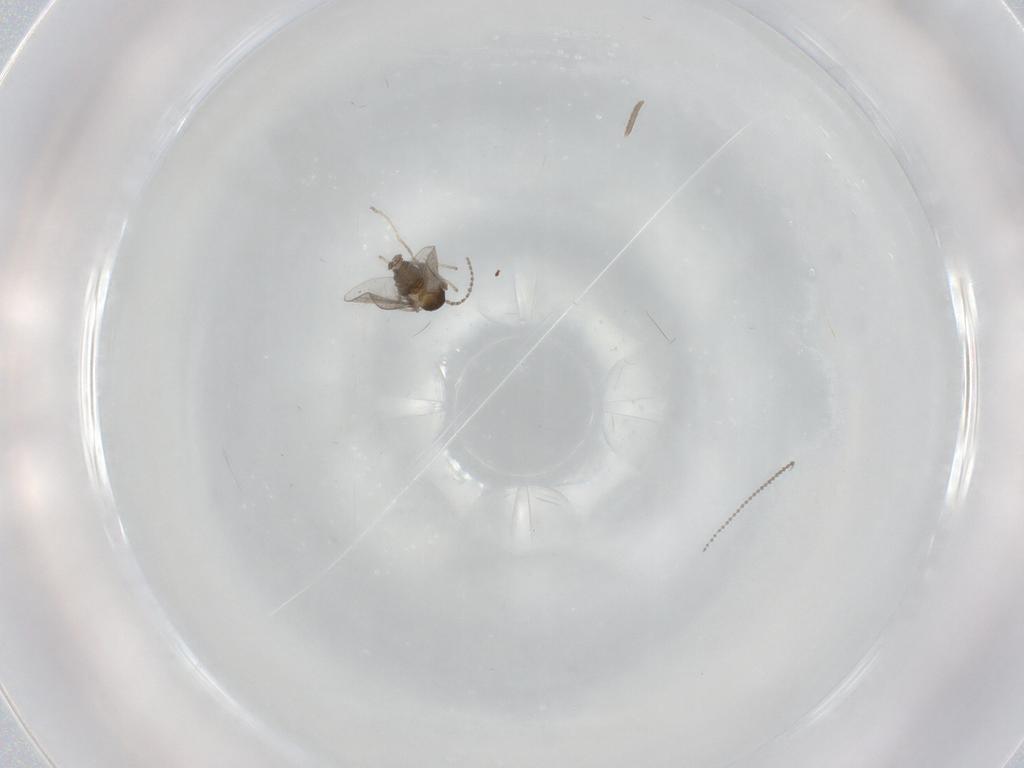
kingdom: Animalia
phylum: Arthropoda
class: Insecta
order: Diptera
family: Cecidomyiidae
